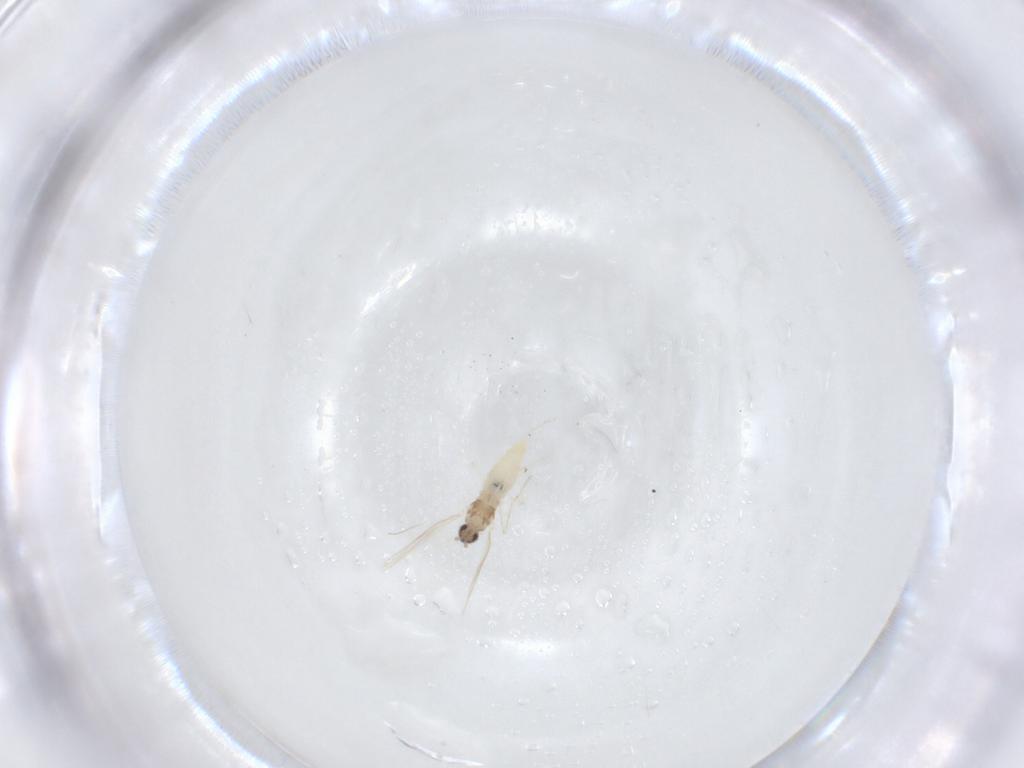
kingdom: Animalia
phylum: Arthropoda
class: Insecta
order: Diptera
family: Cecidomyiidae
